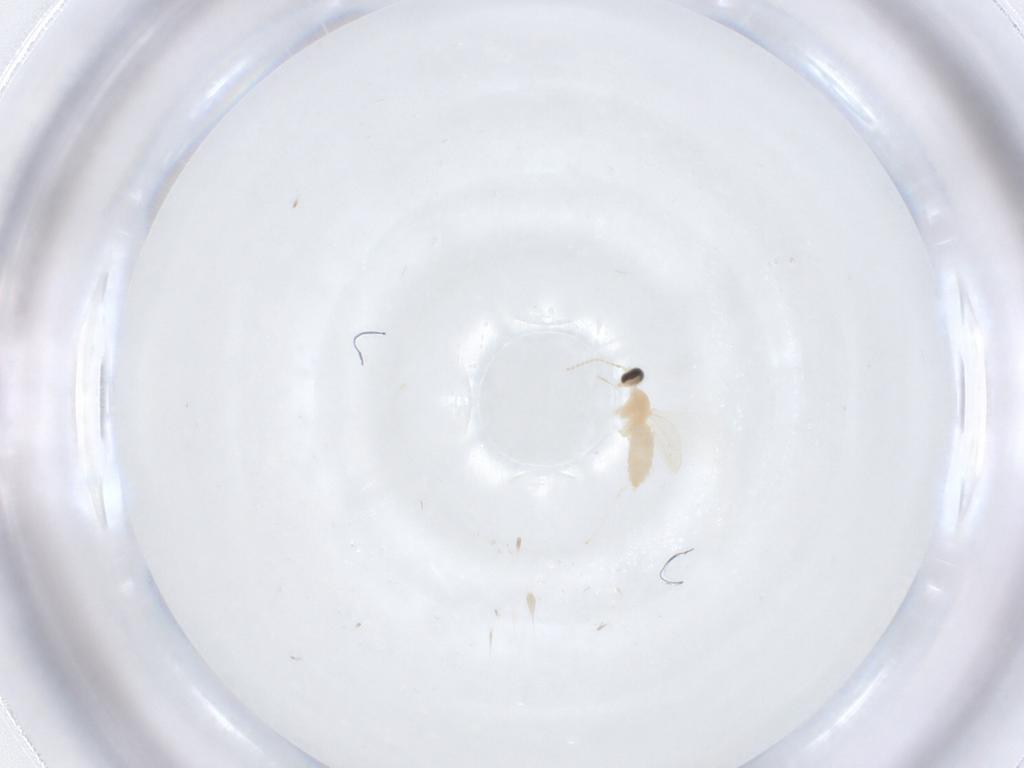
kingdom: Animalia
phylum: Arthropoda
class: Insecta
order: Diptera
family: Cecidomyiidae
